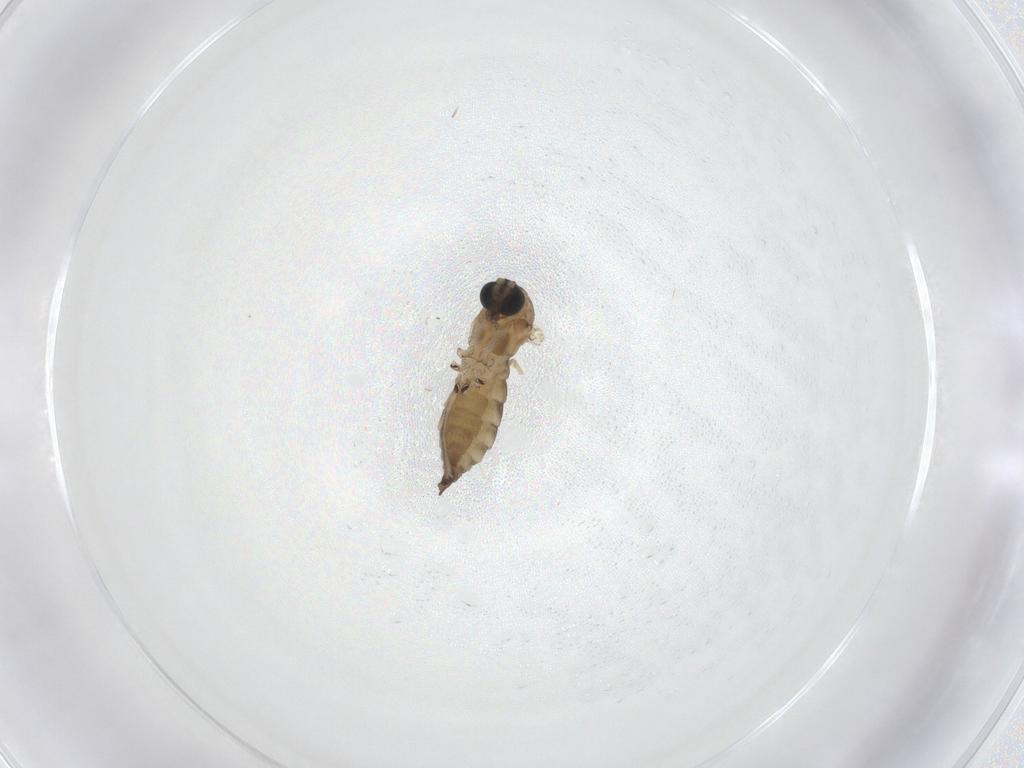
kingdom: Animalia
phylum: Arthropoda
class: Insecta
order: Diptera
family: Sciaridae
